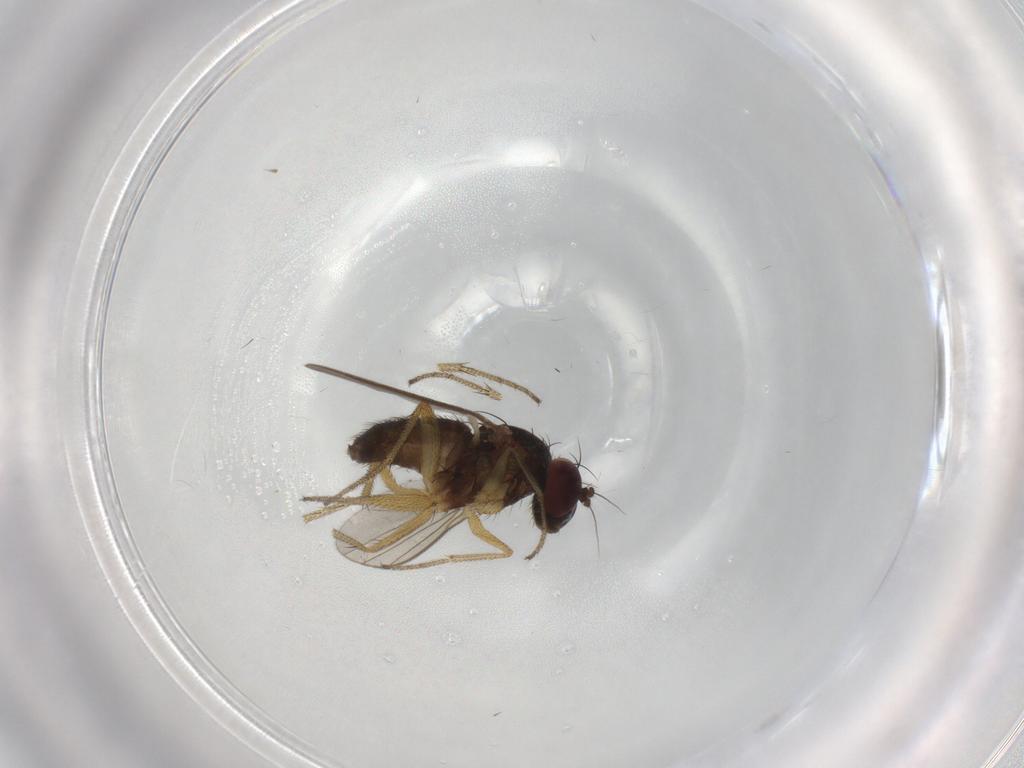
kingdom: Animalia
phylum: Arthropoda
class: Insecta
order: Diptera
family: Dolichopodidae
